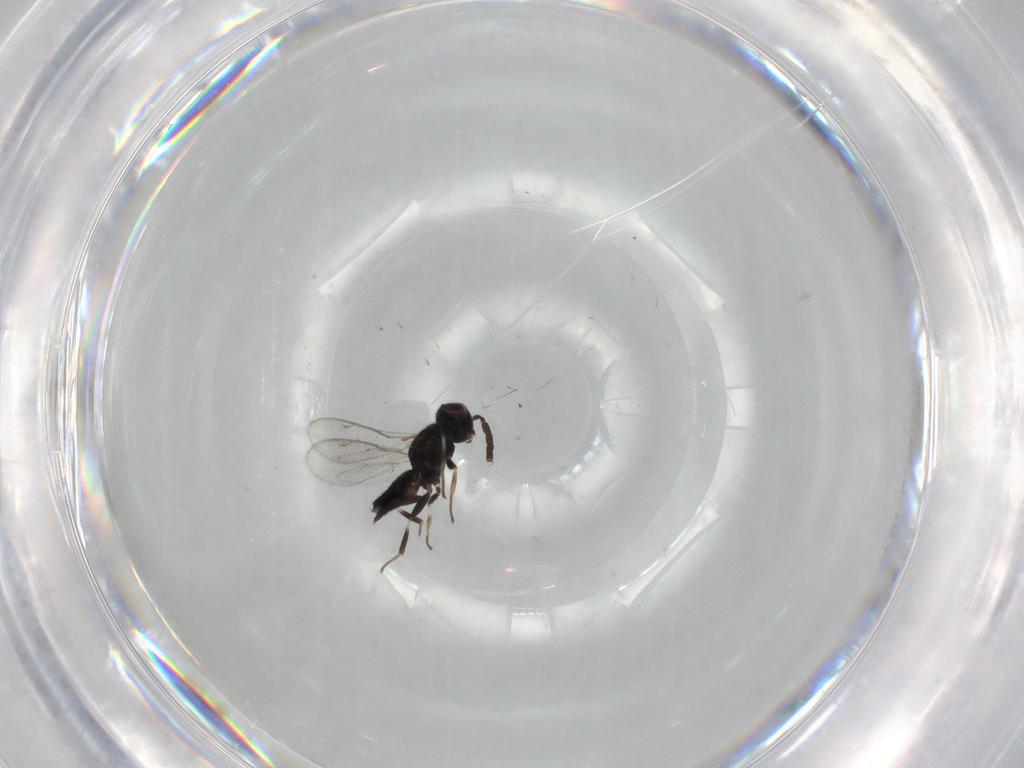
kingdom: Animalia
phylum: Arthropoda
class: Insecta
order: Hymenoptera
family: Eupelmidae
